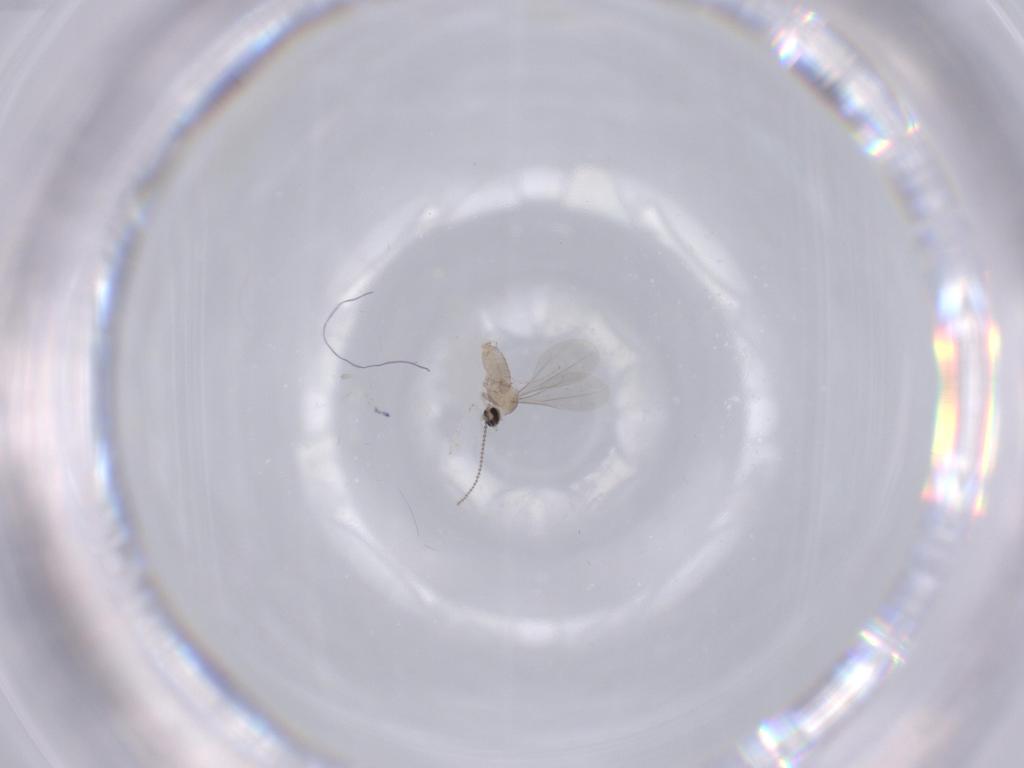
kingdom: Animalia
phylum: Arthropoda
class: Insecta
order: Diptera
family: Cecidomyiidae
